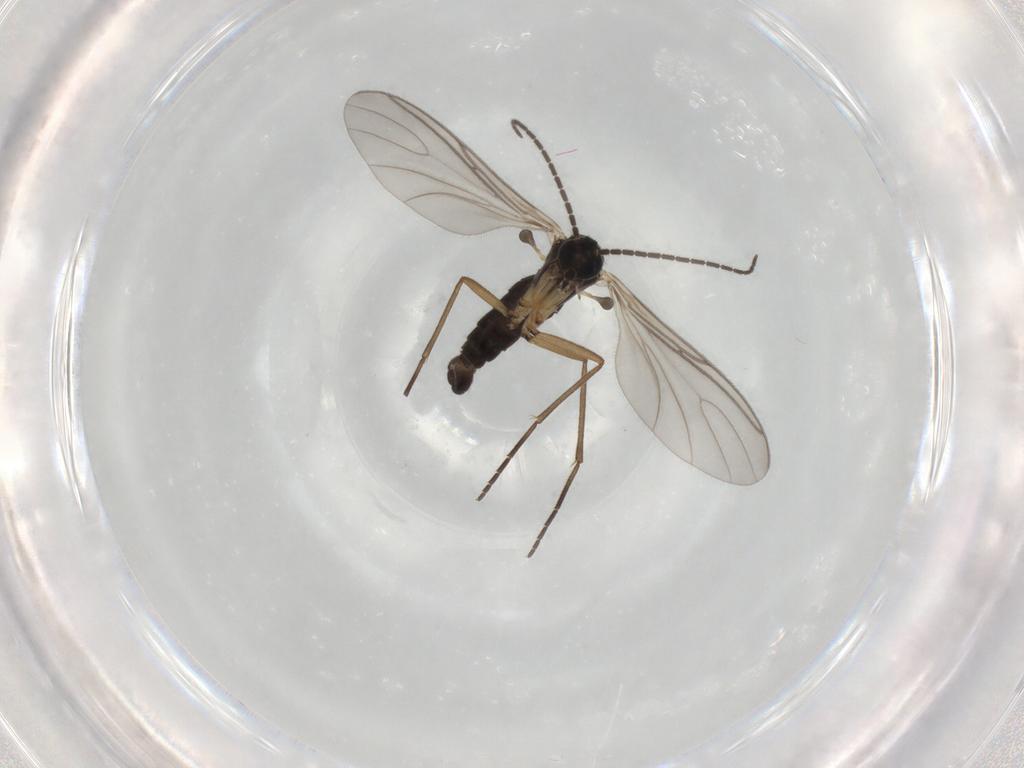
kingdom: Animalia
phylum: Arthropoda
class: Insecta
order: Diptera
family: Sciaridae
